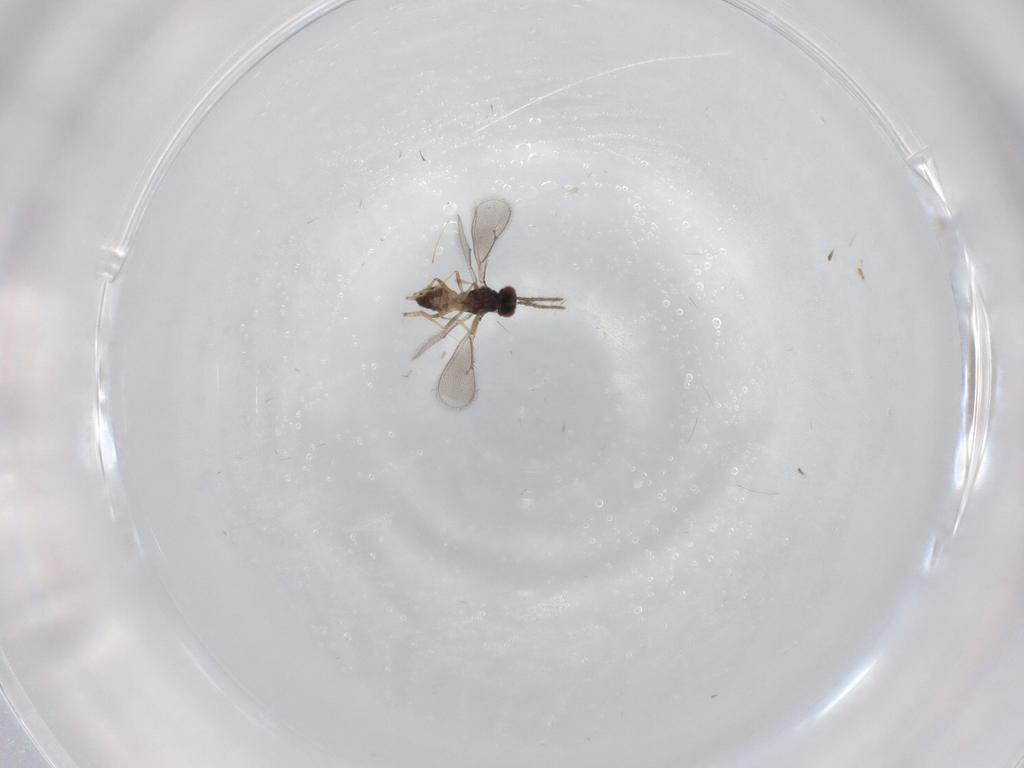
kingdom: Animalia
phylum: Arthropoda
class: Insecta
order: Hymenoptera
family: Eulophidae
